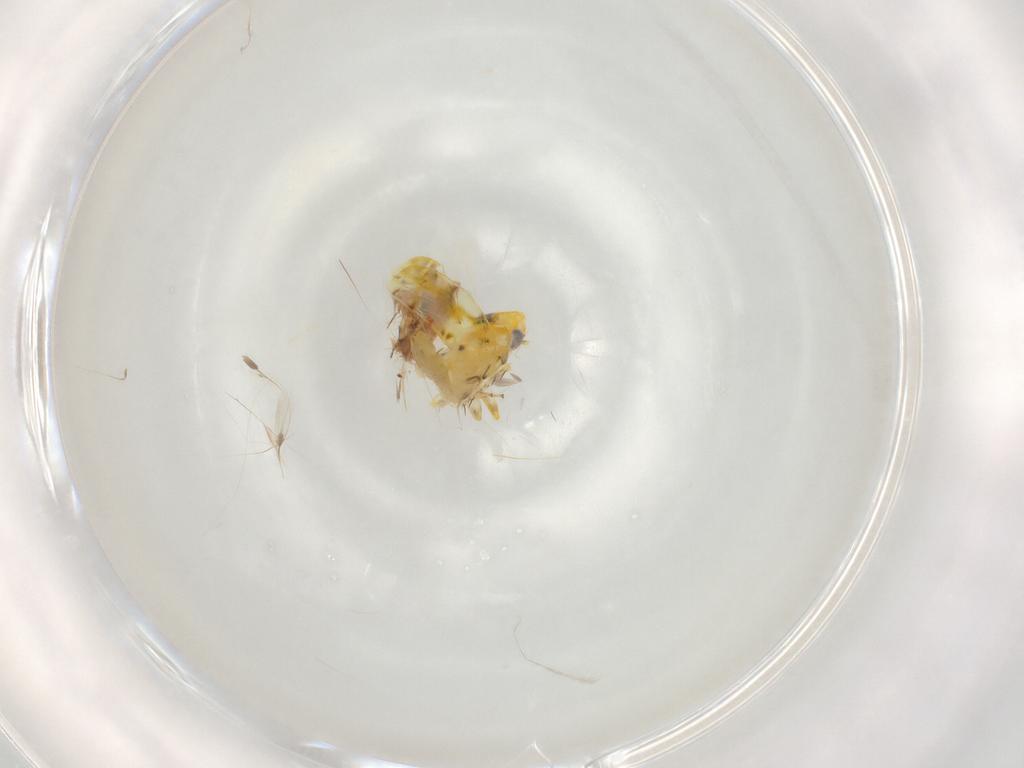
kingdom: Animalia
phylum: Arthropoda
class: Insecta
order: Hemiptera
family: Cicadellidae
